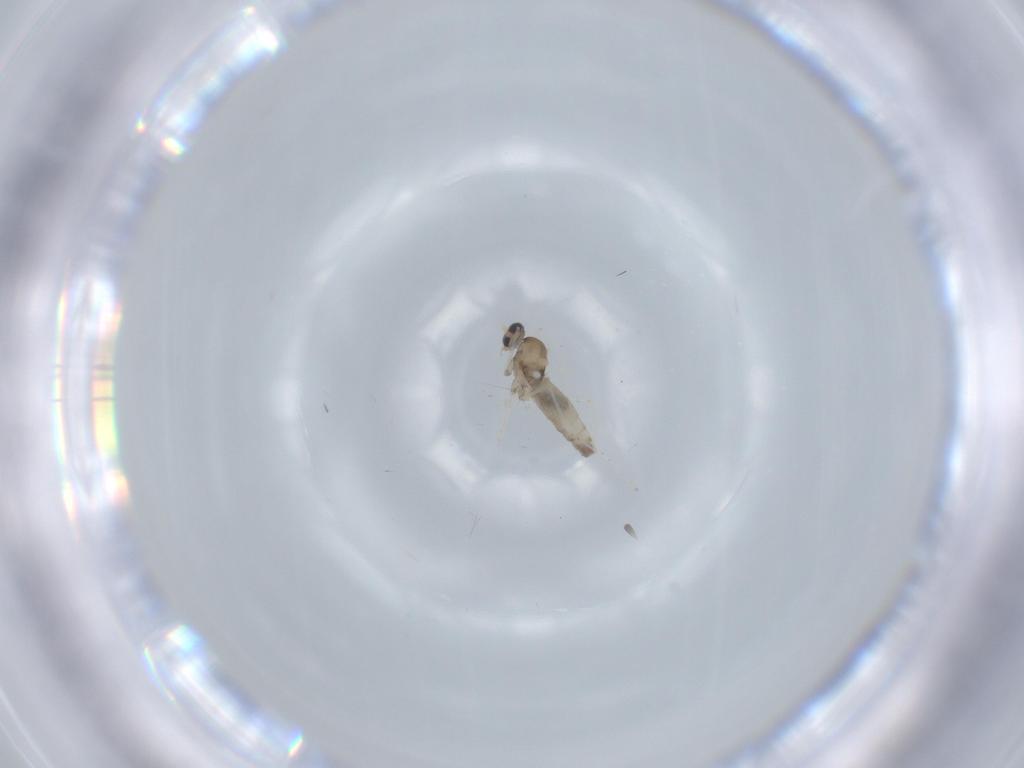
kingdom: Animalia
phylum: Arthropoda
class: Insecta
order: Diptera
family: Cecidomyiidae
